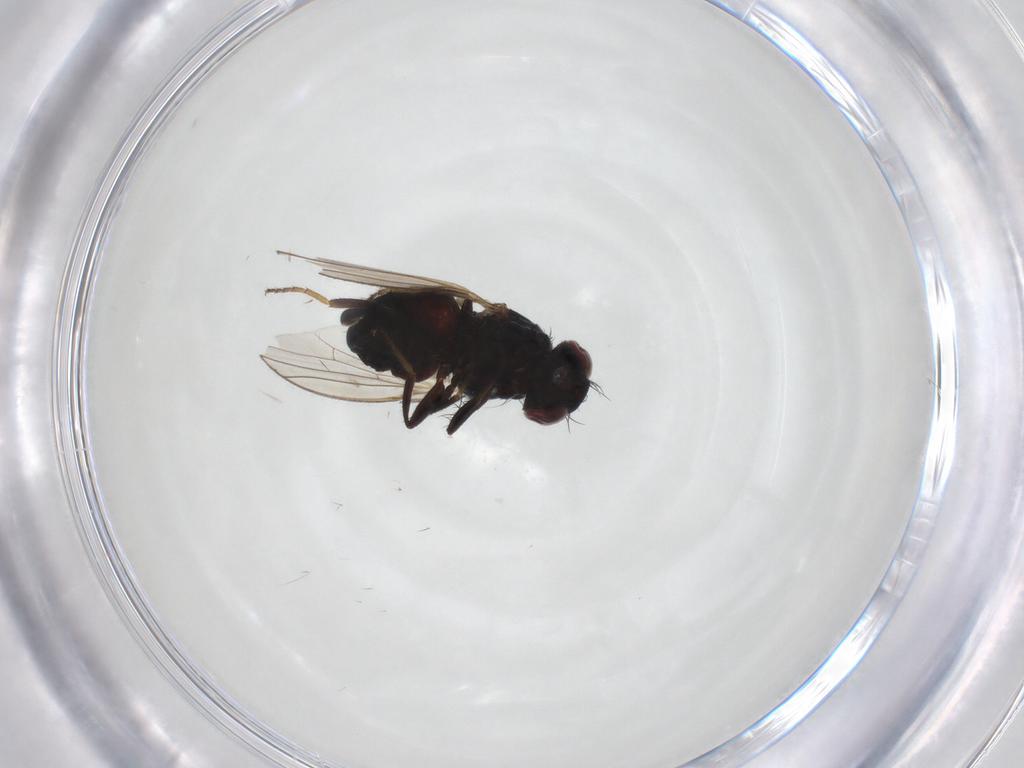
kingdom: Animalia
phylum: Arthropoda
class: Insecta
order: Diptera
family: Carnidae
